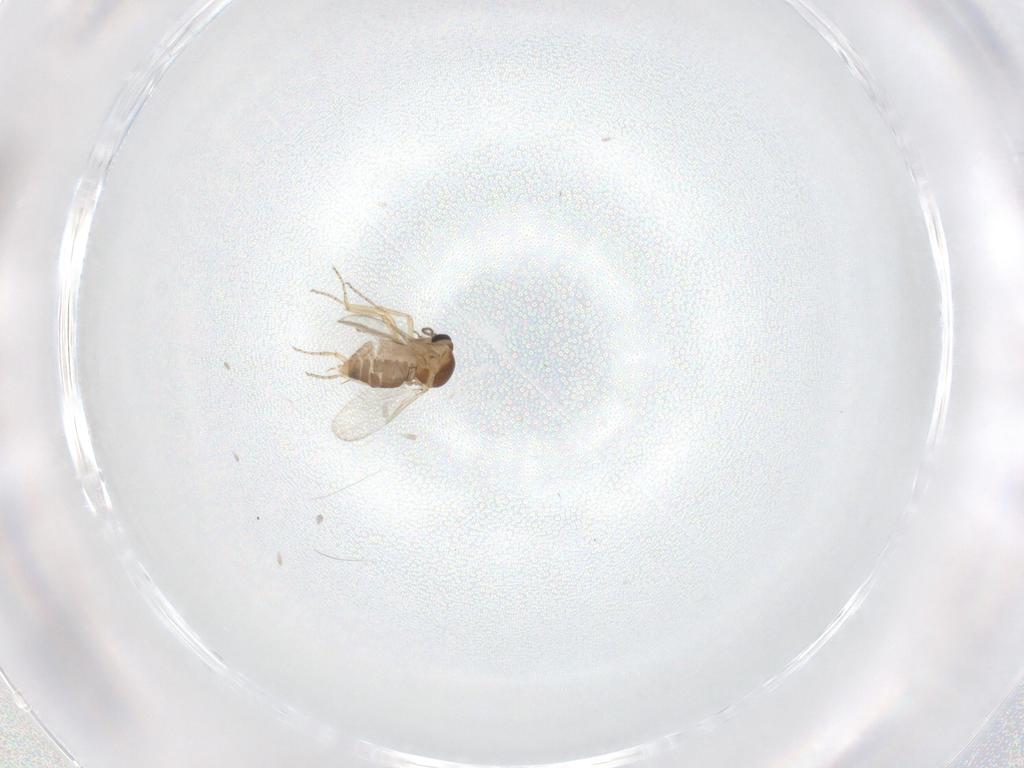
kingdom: Animalia
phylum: Arthropoda
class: Insecta
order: Diptera
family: Ceratopogonidae
